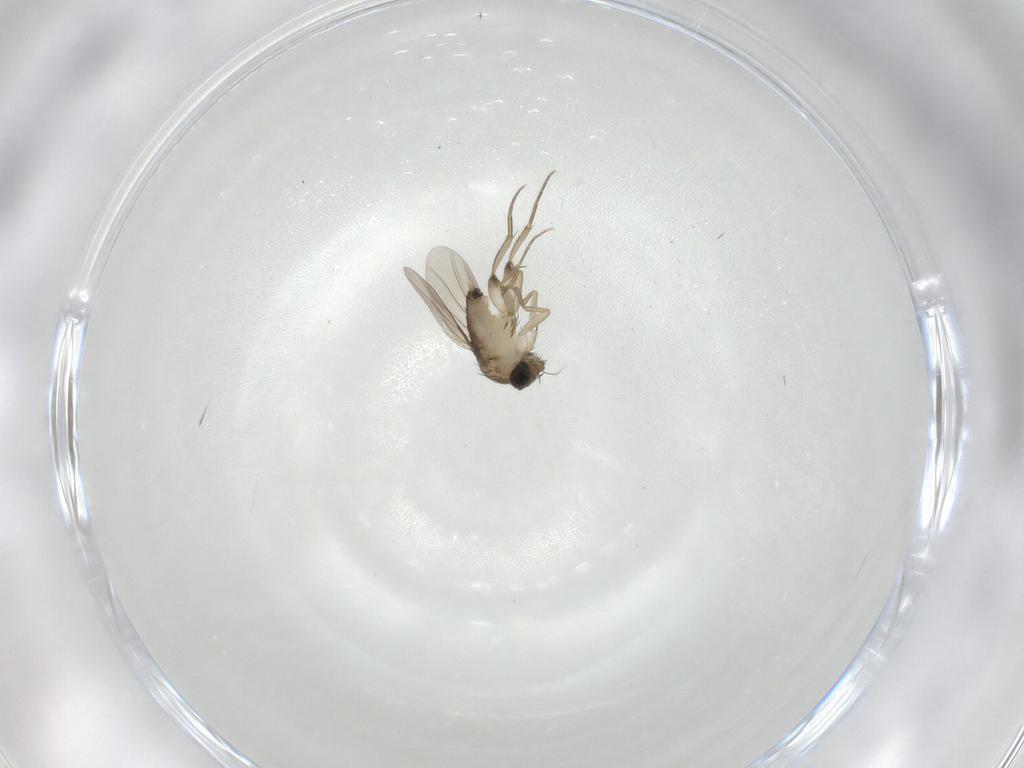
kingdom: Animalia
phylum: Arthropoda
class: Insecta
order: Diptera
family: Phoridae
